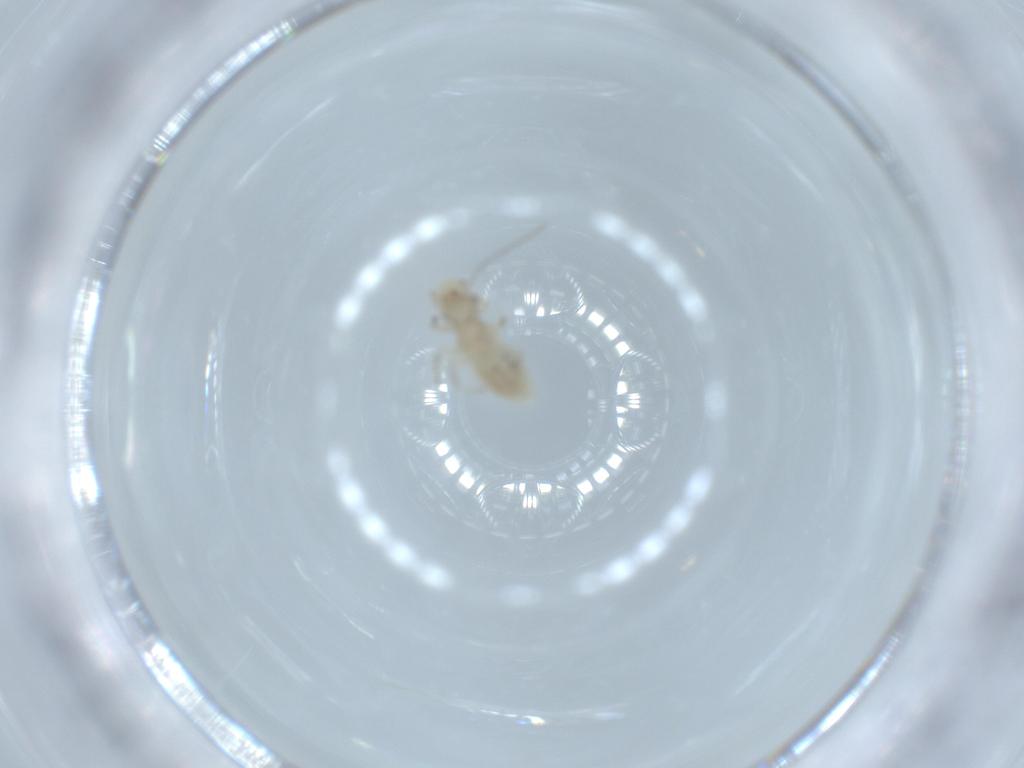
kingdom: Animalia
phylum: Arthropoda
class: Insecta
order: Psocodea
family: Caeciliusidae
